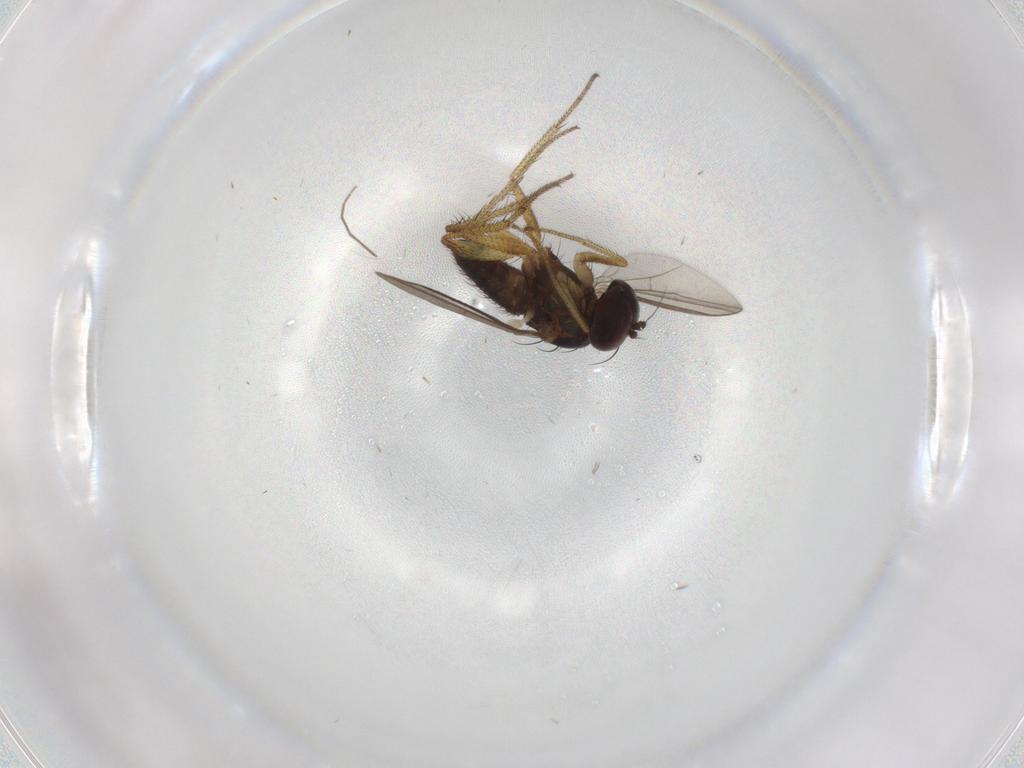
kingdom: Animalia
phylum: Arthropoda
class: Insecta
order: Diptera
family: Dolichopodidae
